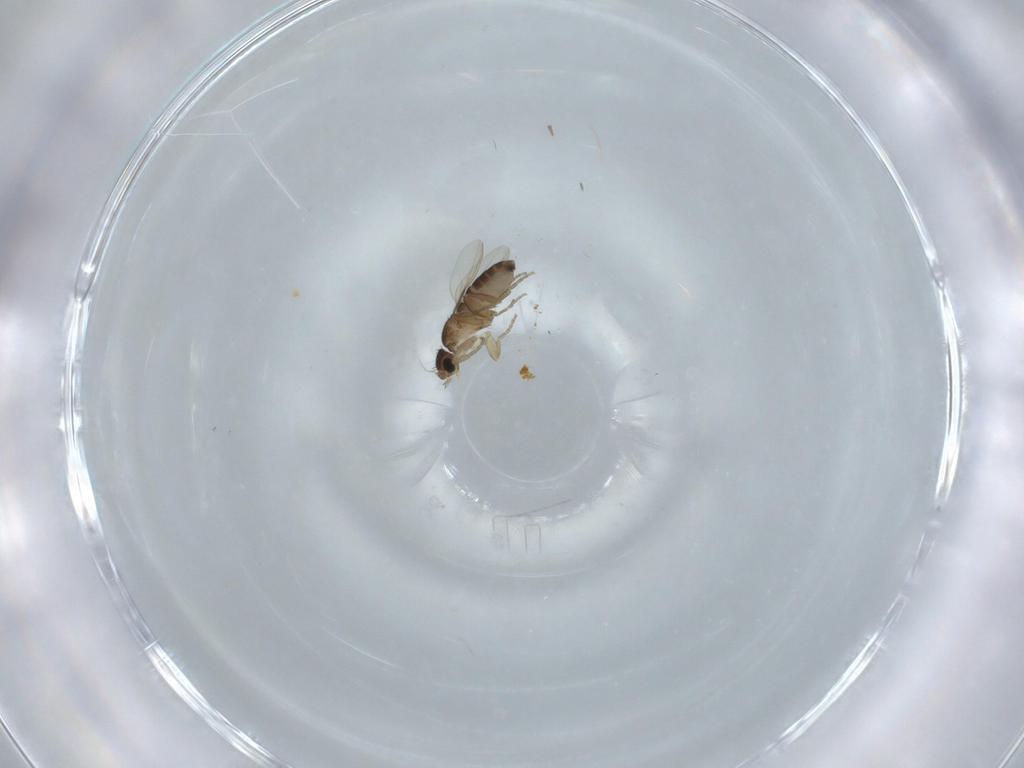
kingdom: Animalia
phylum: Arthropoda
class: Insecta
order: Diptera
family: Phoridae
